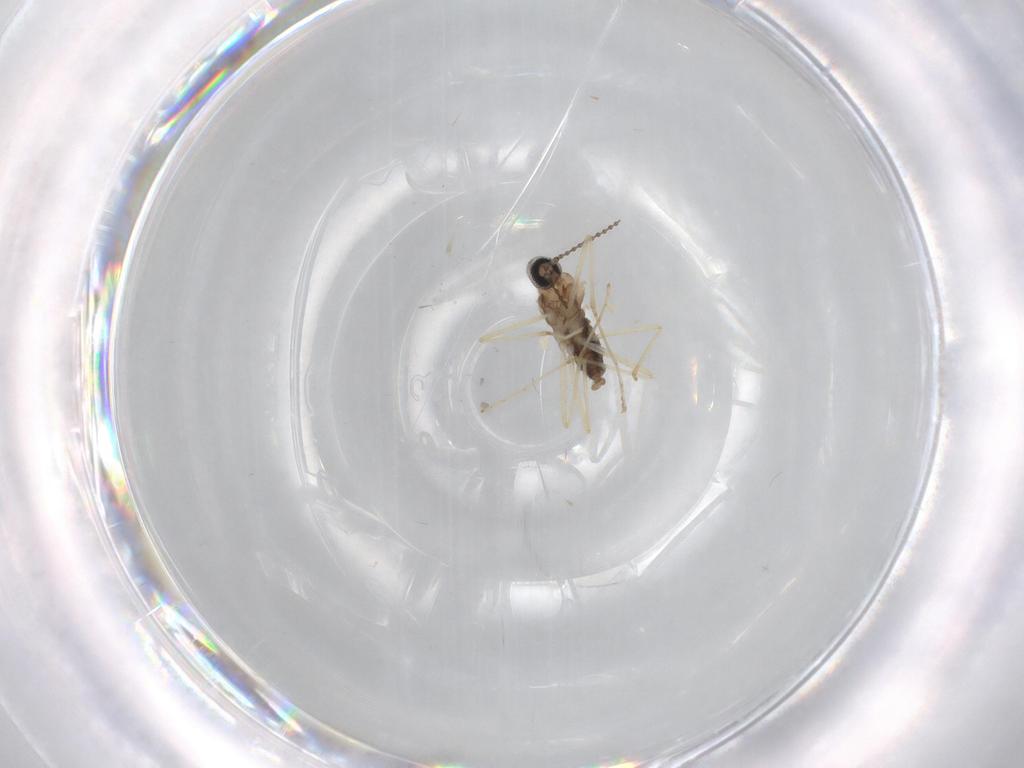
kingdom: Animalia
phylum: Arthropoda
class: Insecta
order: Diptera
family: Cecidomyiidae
